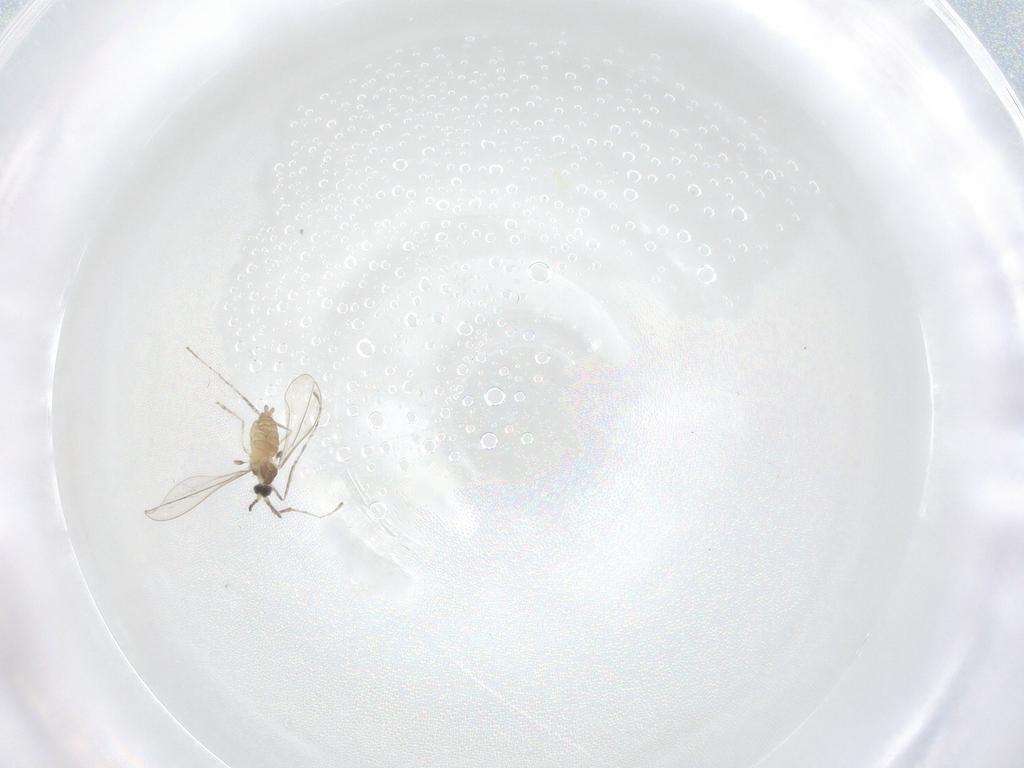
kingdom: Animalia
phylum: Arthropoda
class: Insecta
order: Diptera
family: Cecidomyiidae
